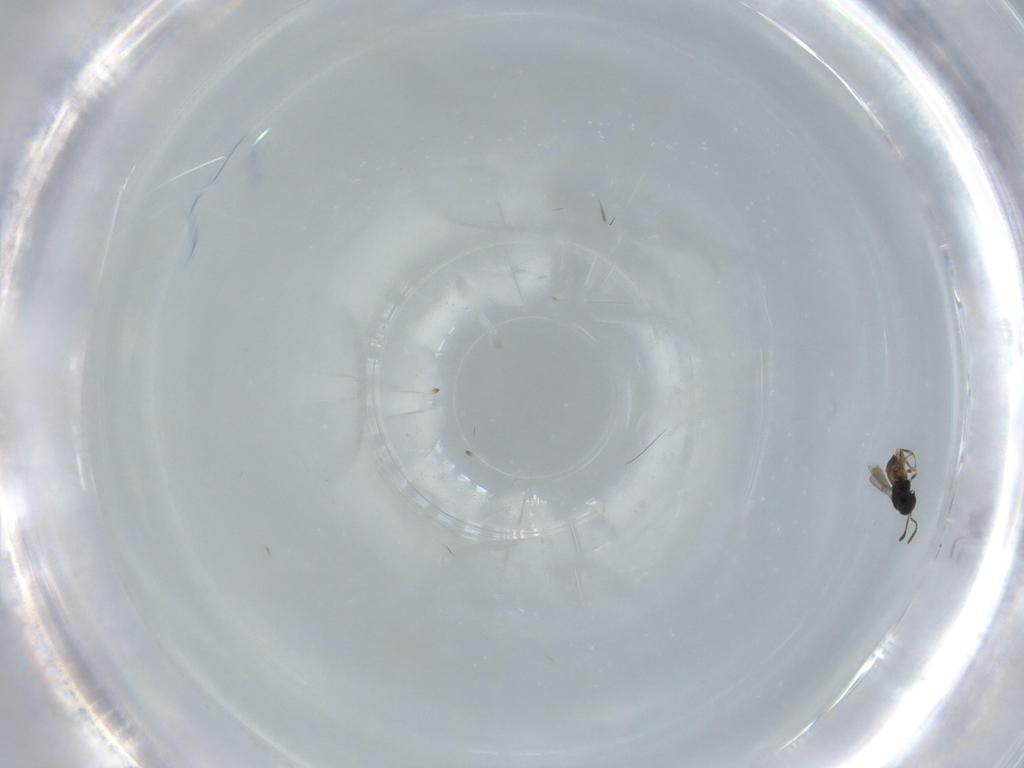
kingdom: Animalia
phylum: Arthropoda
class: Insecta
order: Hymenoptera
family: Scelionidae
